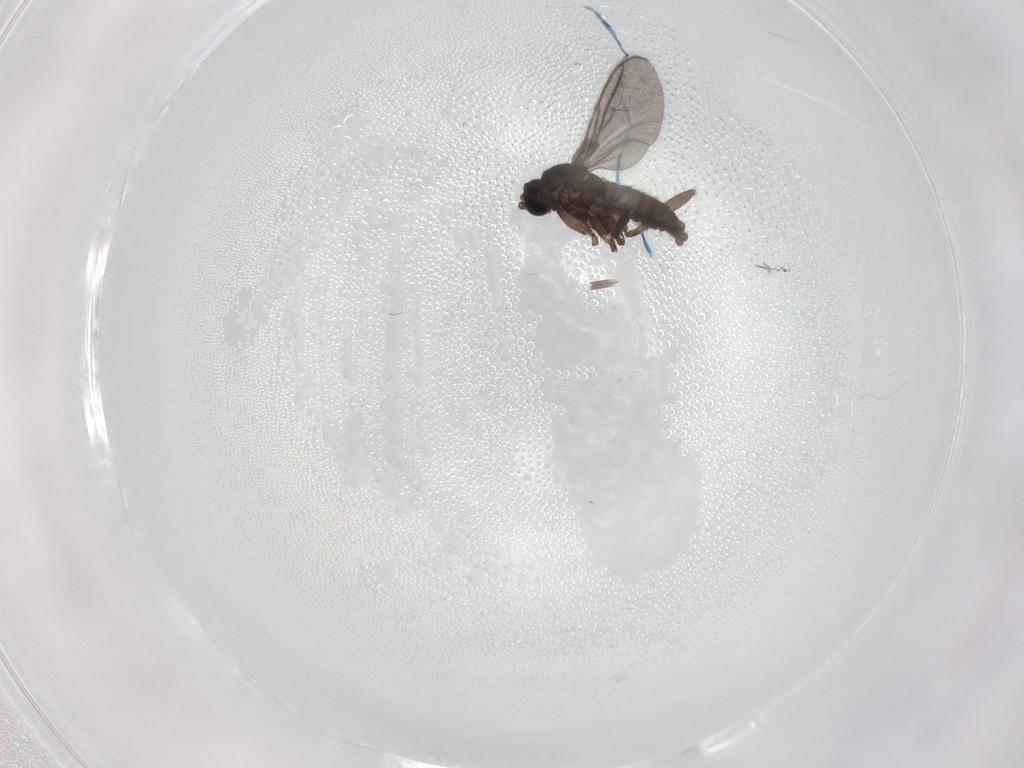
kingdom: Animalia
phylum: Arthropoda
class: Insecta
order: Diptera
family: Sciaridae
